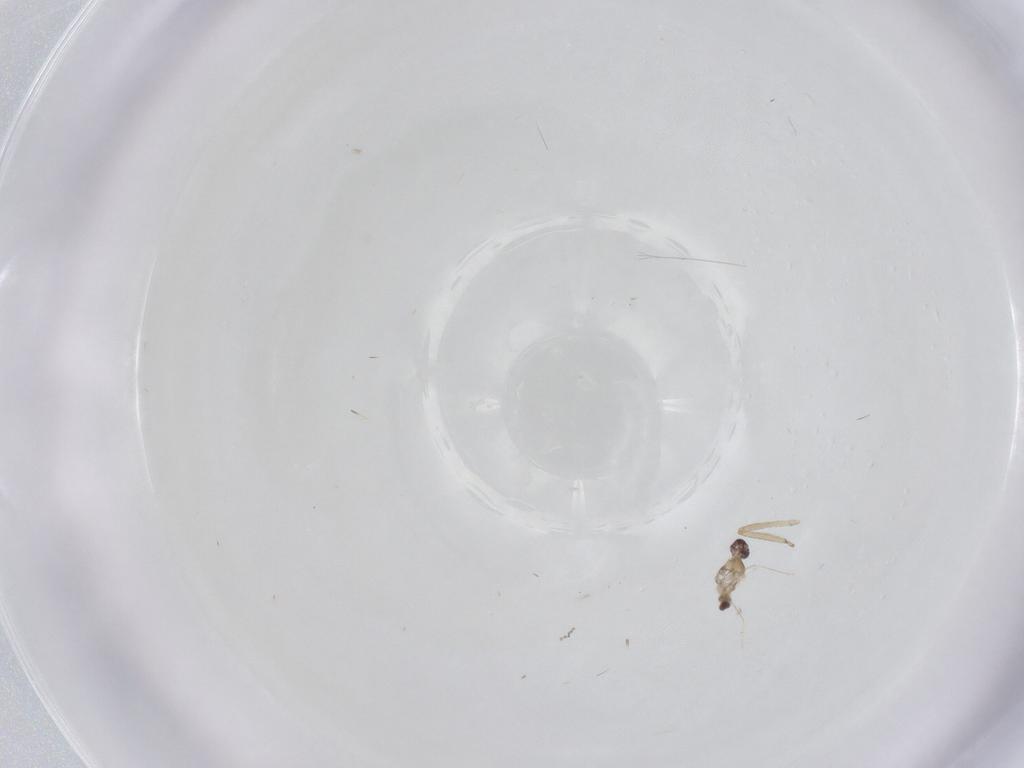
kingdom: Animalia
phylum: Arthropoda
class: Insecta
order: Diptera
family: Cecidomyiidae
